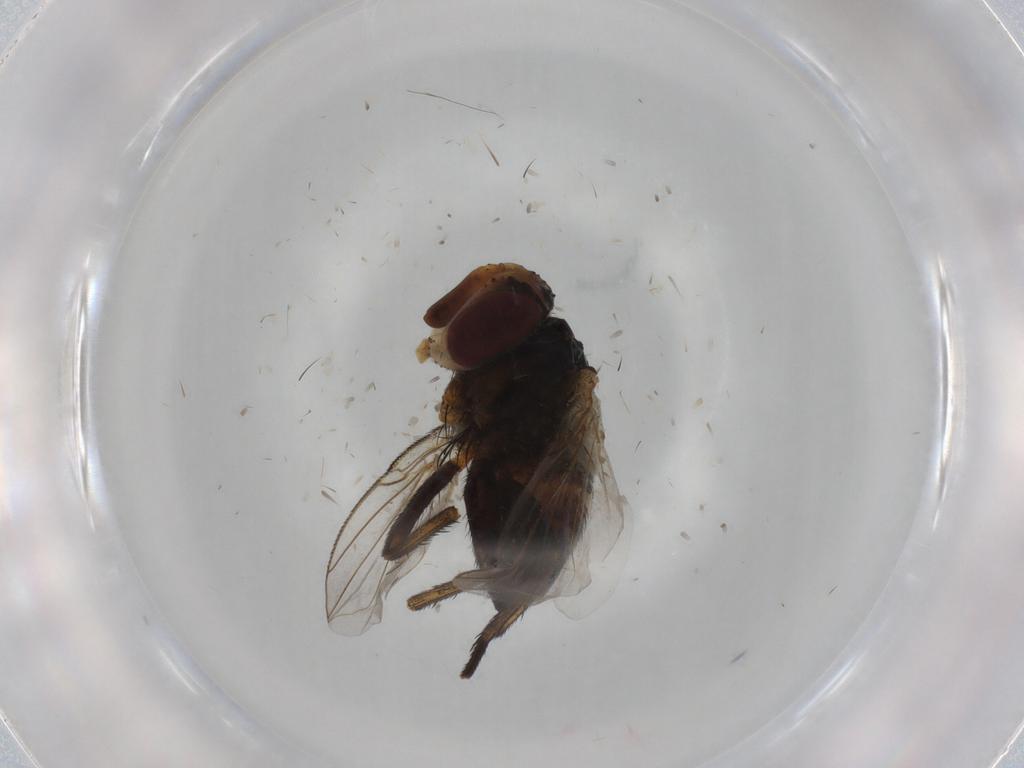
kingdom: Animalia
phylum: Arthropoda
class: Insecta
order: Diptera
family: Glossinidae
